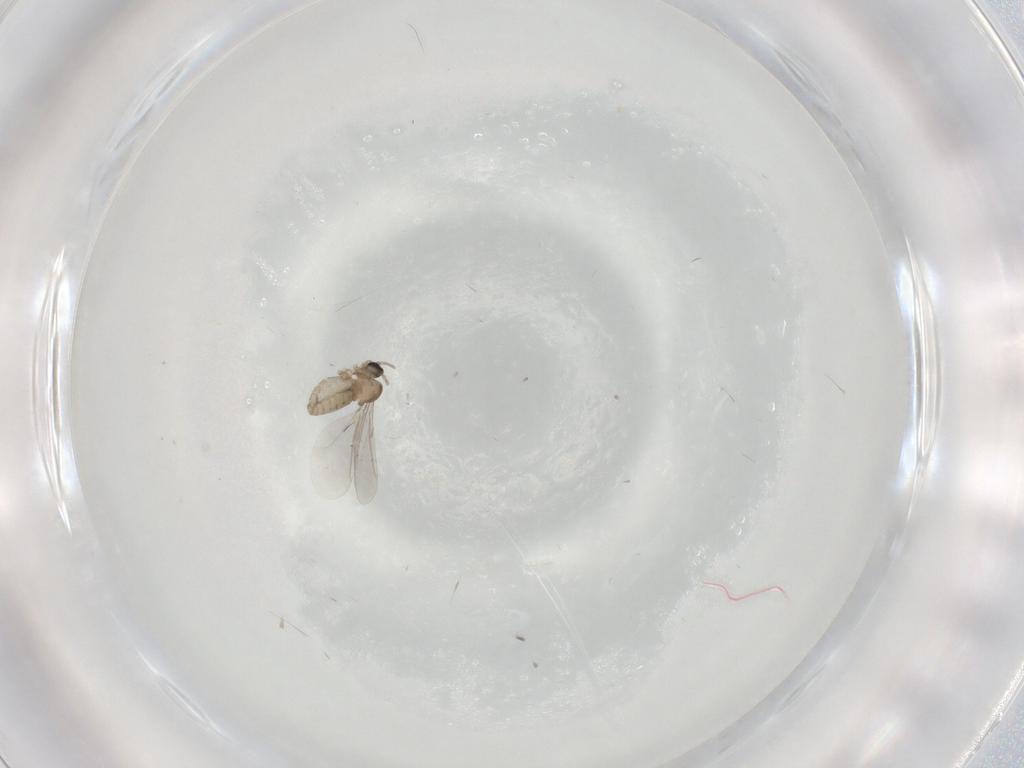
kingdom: Animalia
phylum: Arthropoda
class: Insecta
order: Diptera
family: Cecidomyiidae
